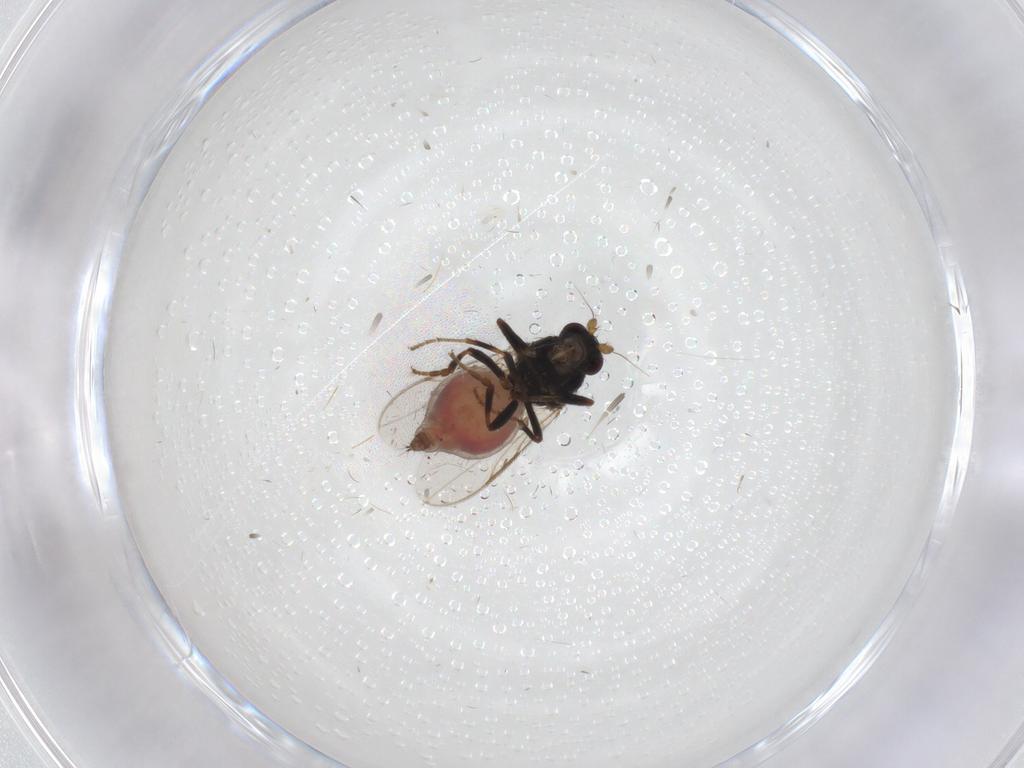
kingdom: Animalia
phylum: Arthropoda
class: Insecta
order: Diptera
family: Sphaeroceridae
